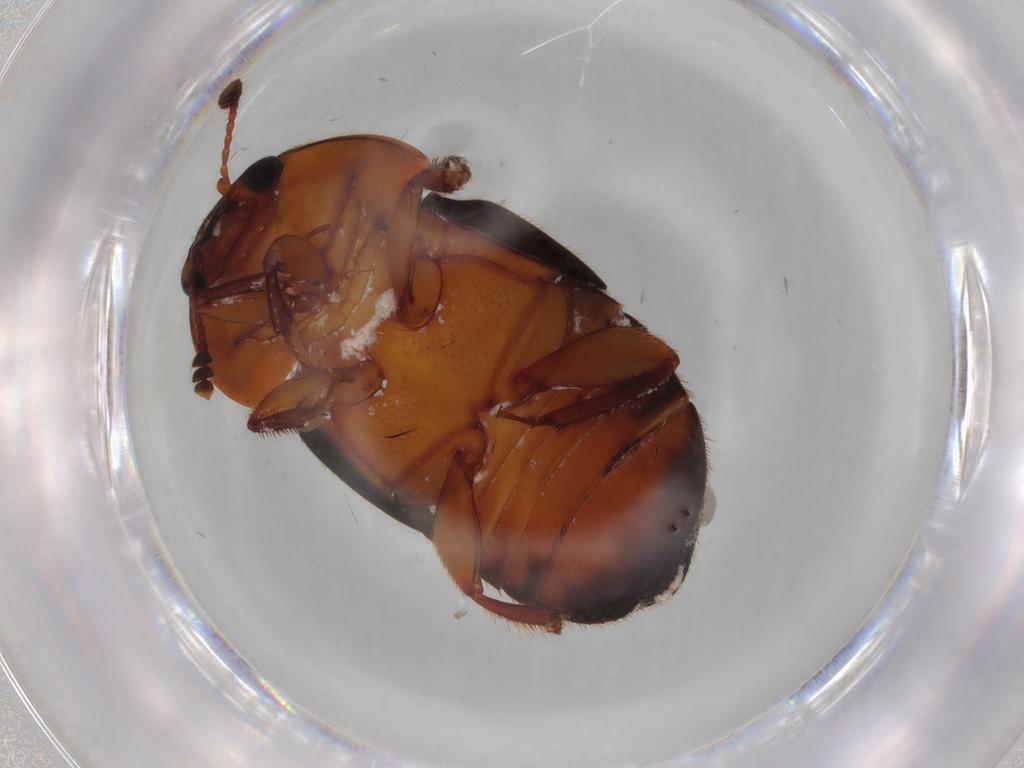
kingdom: Animalia
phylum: Arthropoda
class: Insecta
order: Coleoptera
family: Nitidulidae
